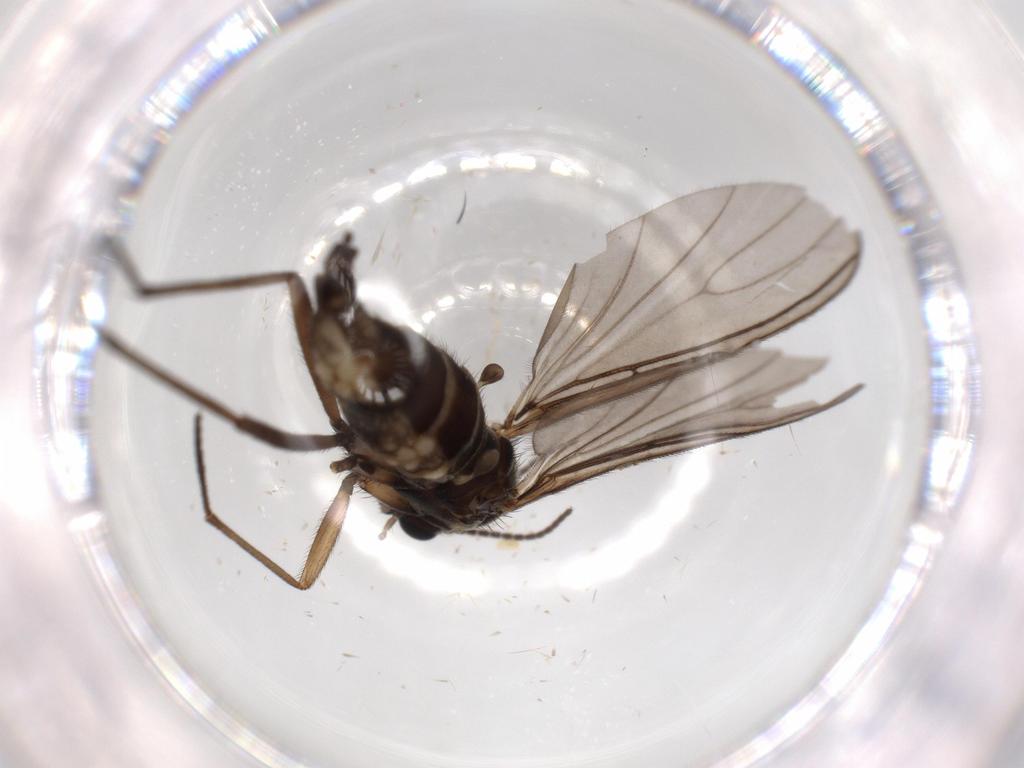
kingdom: Animalia
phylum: Arthropoda
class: Insecta
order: Diptera
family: Sciaridae
